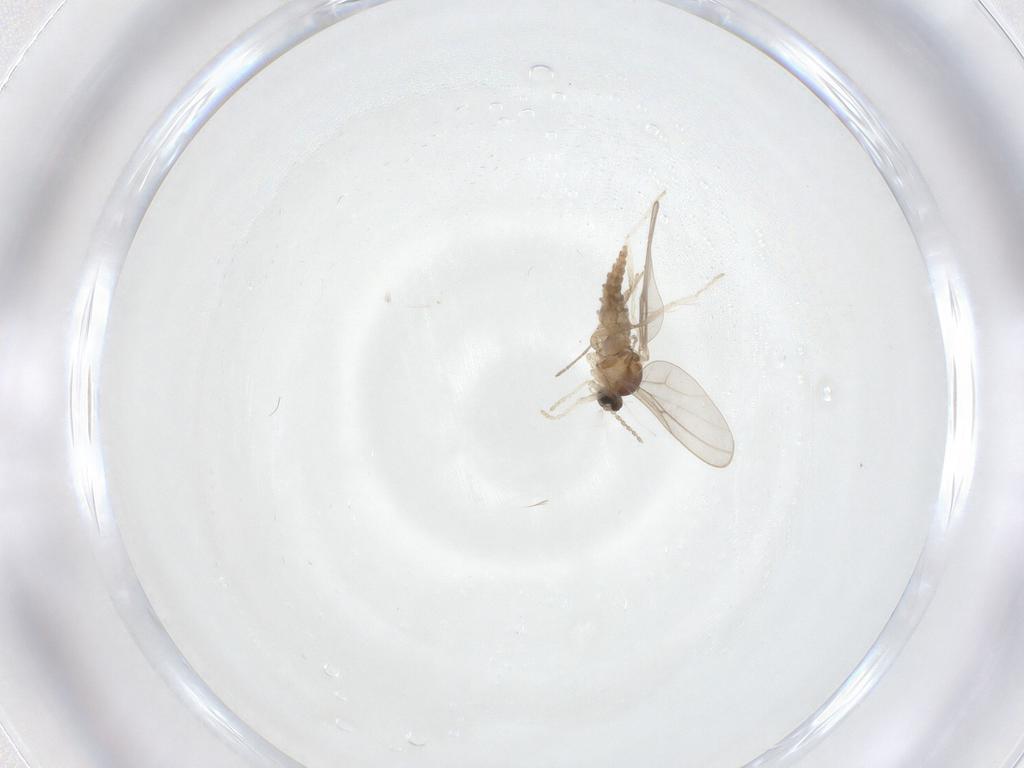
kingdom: Animalia
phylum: Arthropoda
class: Insecta
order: Diptera
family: Cecidomyiidae
